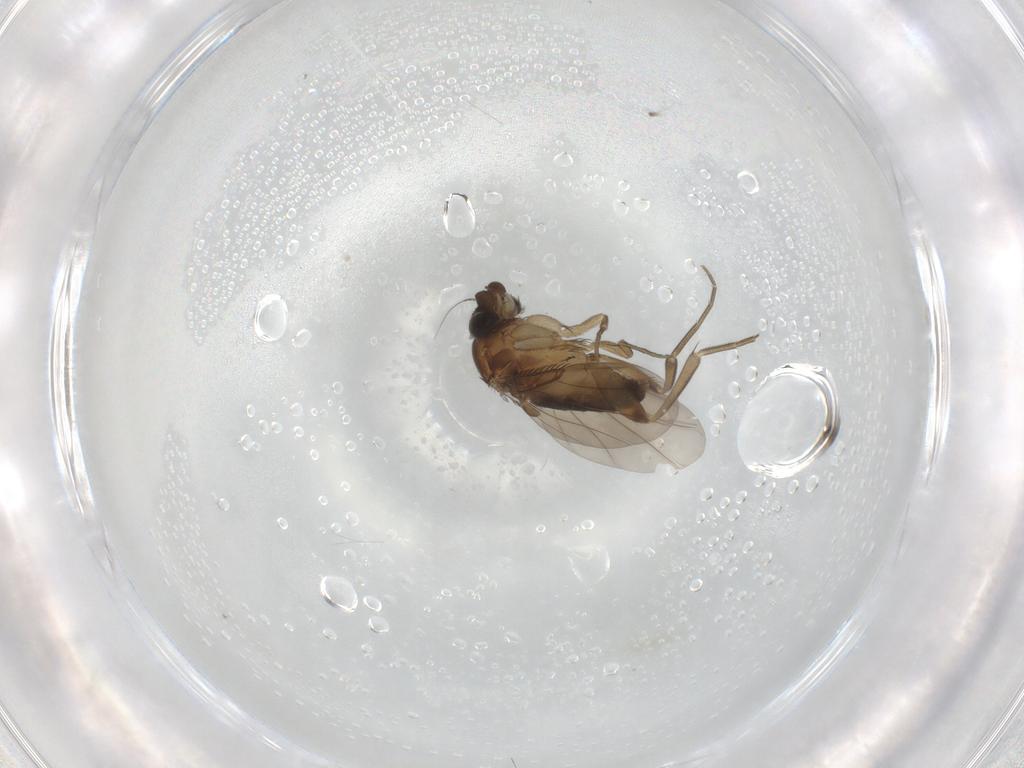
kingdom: Animalia
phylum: Arthropoda
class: Insecta
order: Diptera
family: Phoridae
